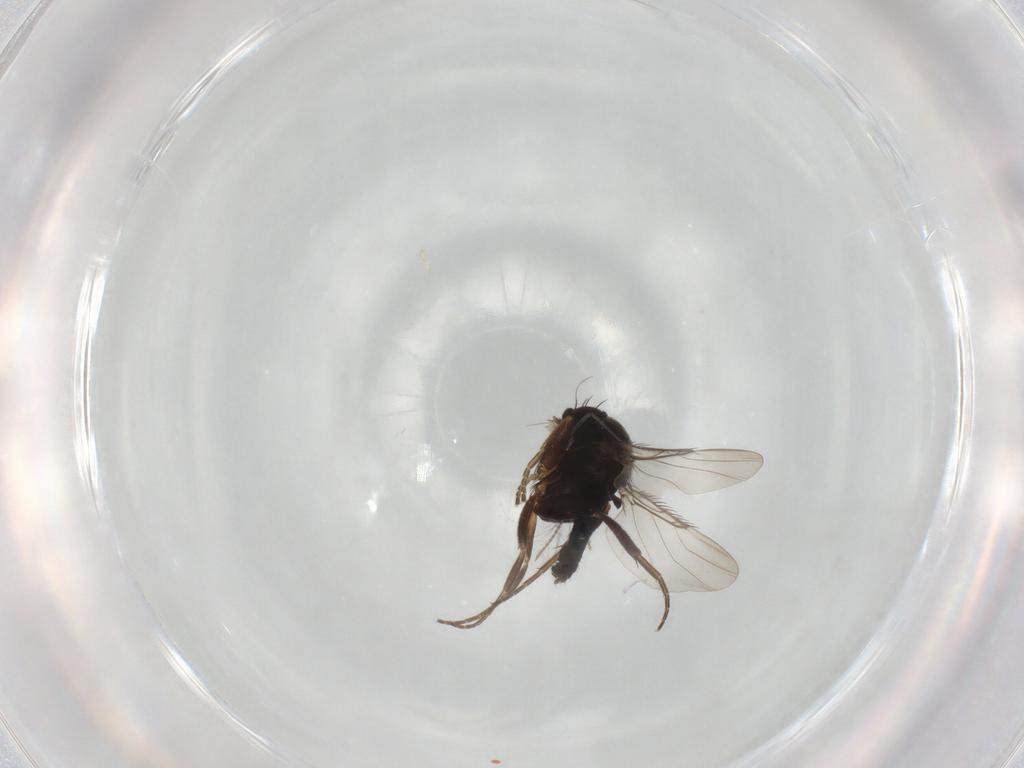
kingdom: Animalia
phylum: Arthropoda
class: Insecta
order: Diptera
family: Phoridae
